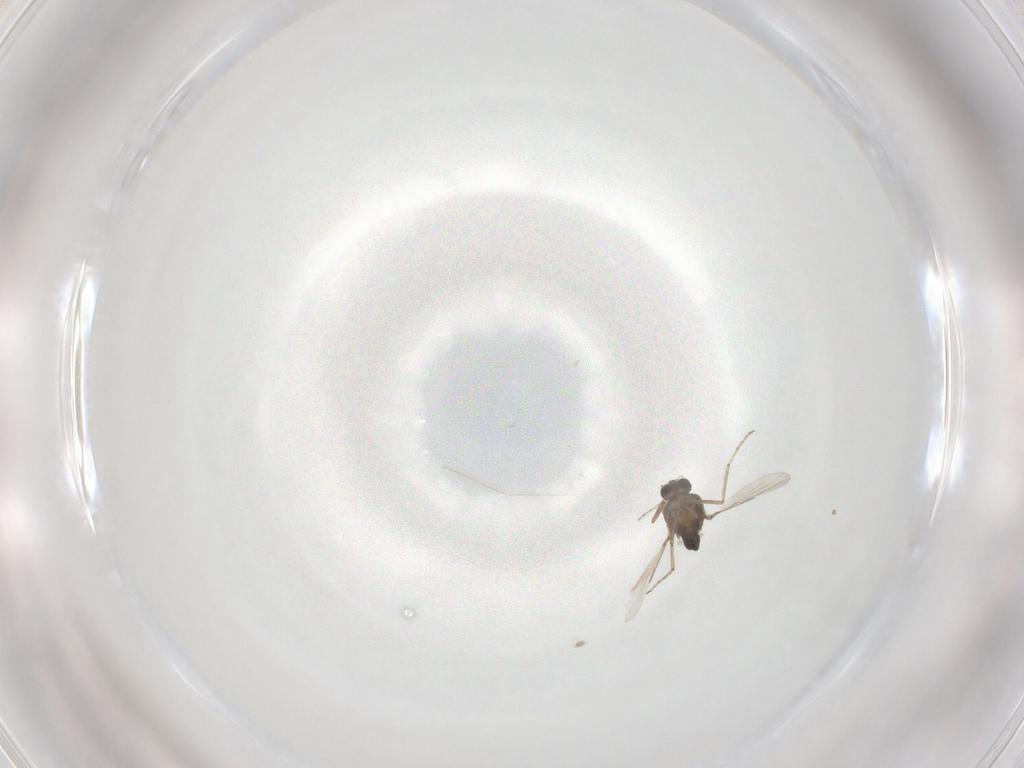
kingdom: Animalia
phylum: Arthropoda
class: Insecta
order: Diptera
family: Ceratopogonidae
